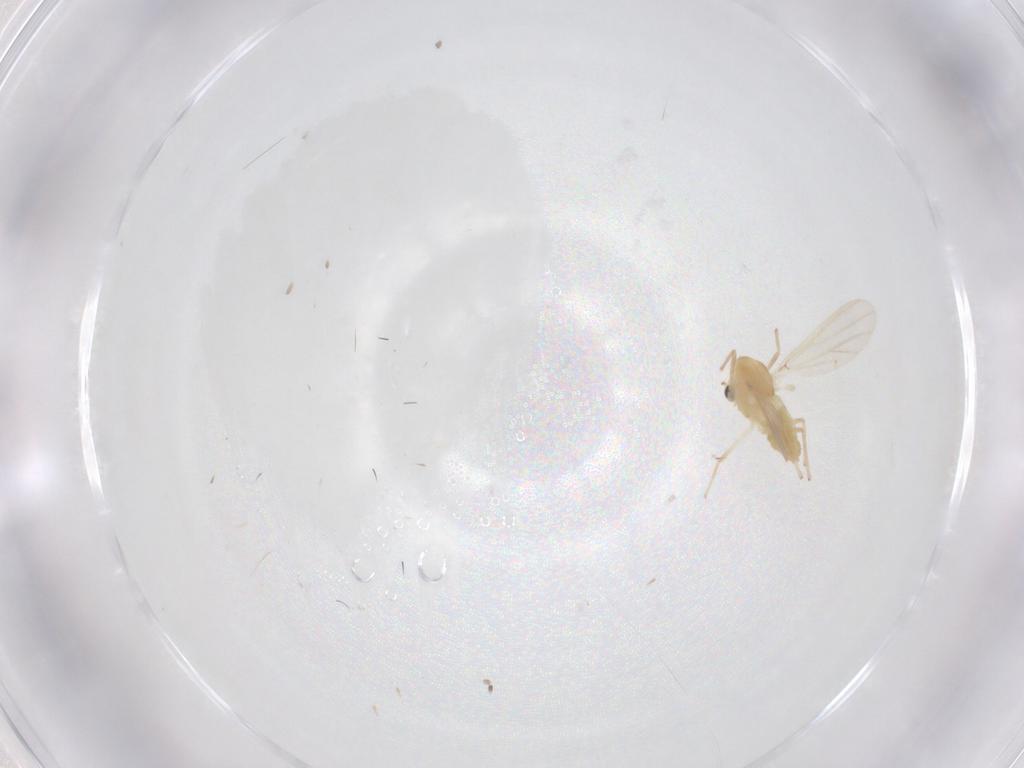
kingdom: Animalia
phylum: Arthropoda
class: Insecta
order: Diptera
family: Chironomidae
